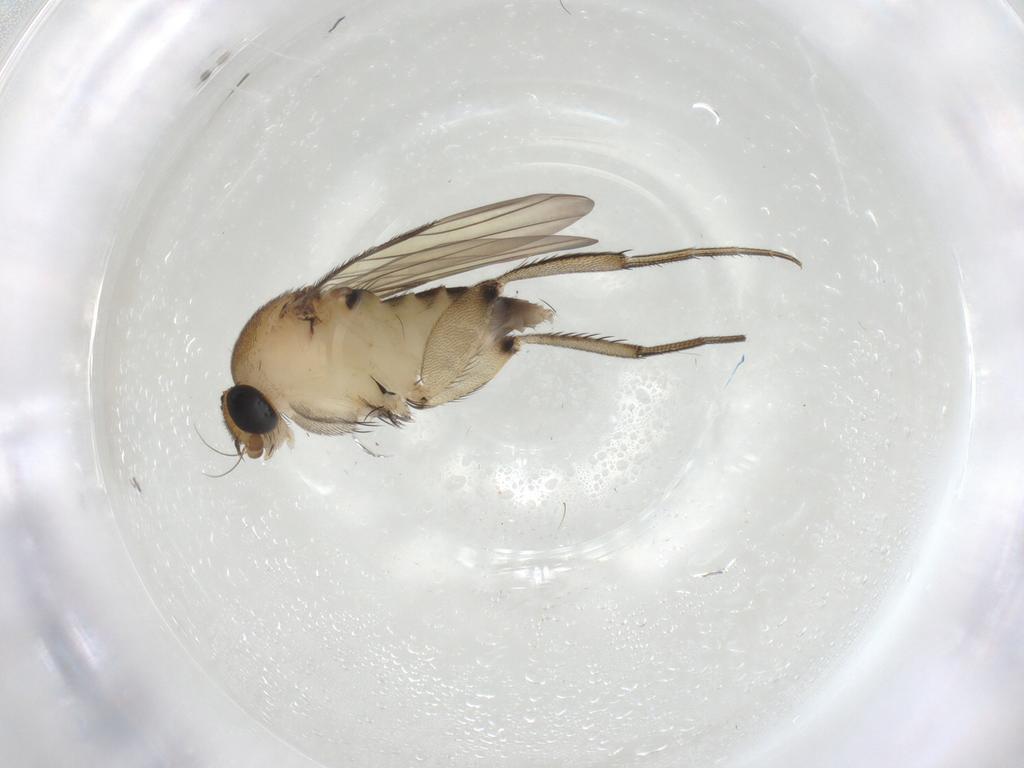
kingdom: Animalia
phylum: Arthropoda
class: Insecta
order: Diptera
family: Phoridae
